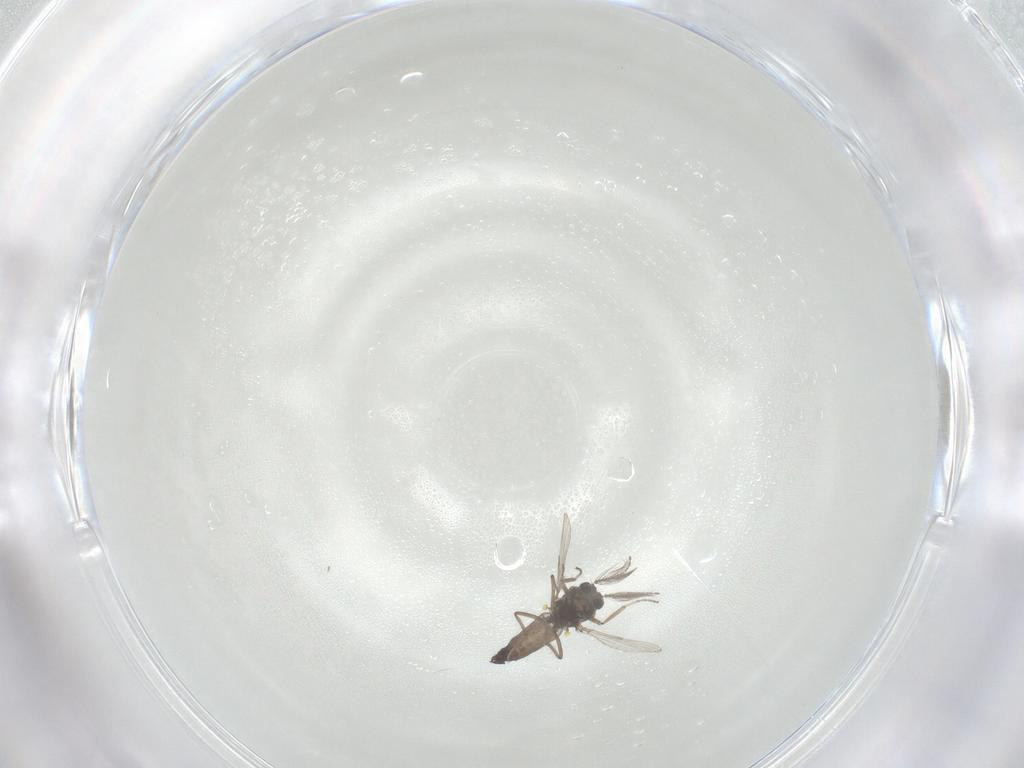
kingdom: Animalia
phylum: Arthropoda
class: Insecta
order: Diptera
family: Ceratopogonidae
